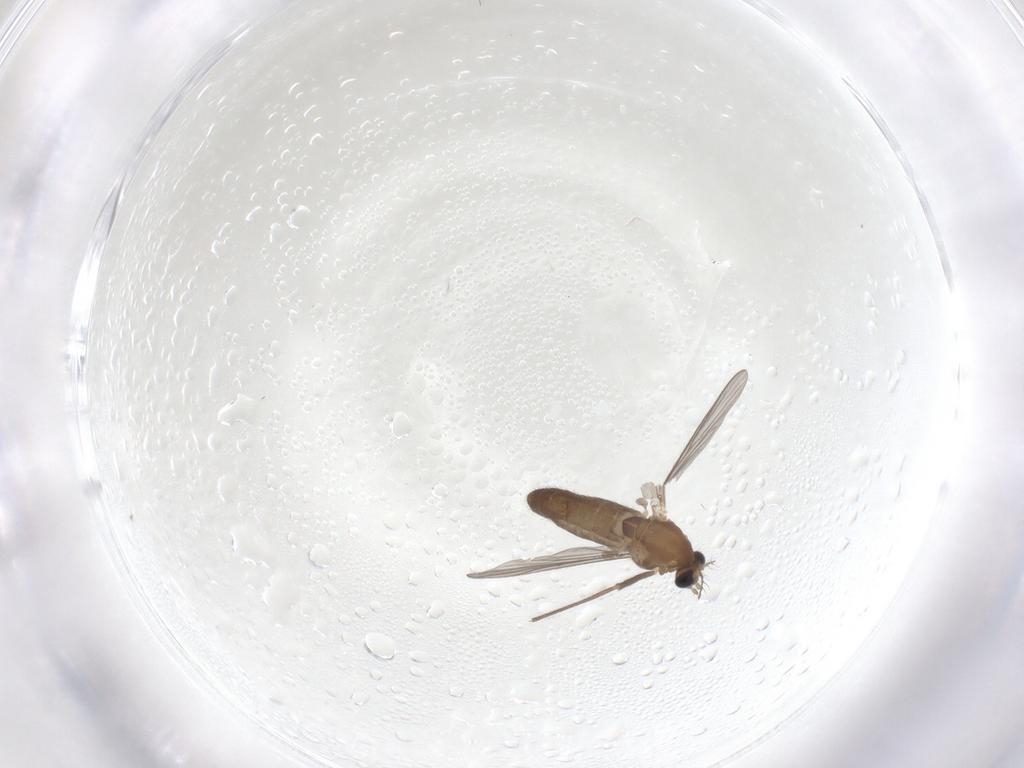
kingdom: Animalia
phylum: Arthropoda
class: Insecta
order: Diptera
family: Chironomidae
